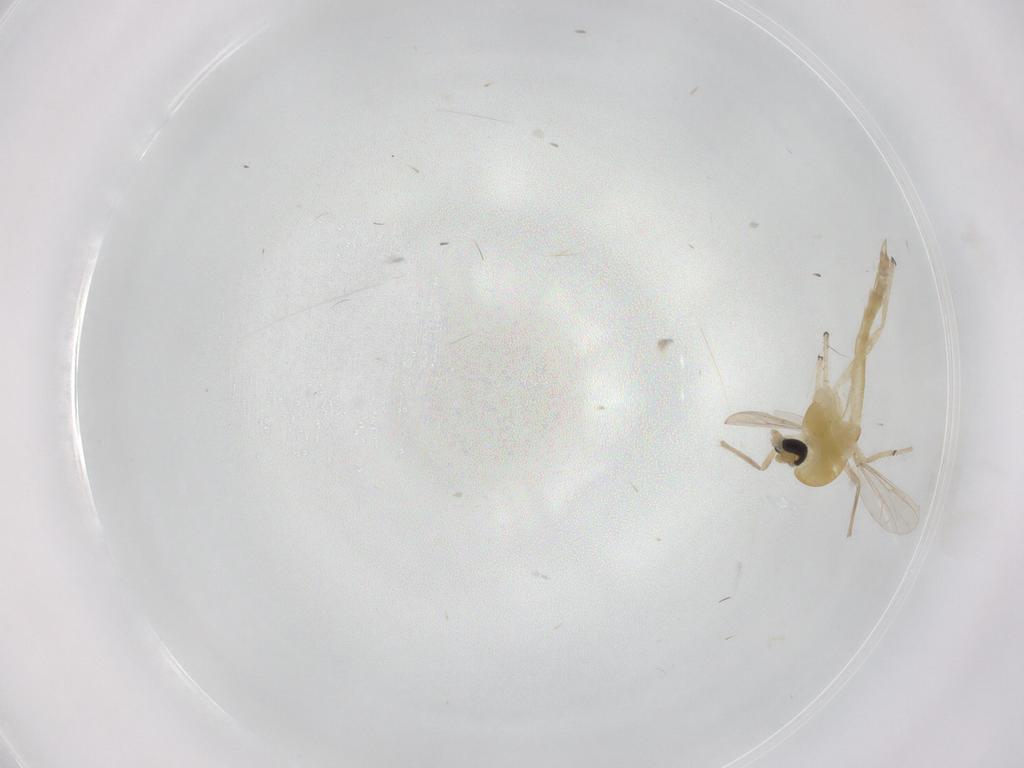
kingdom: Animalia
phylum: Arthropoda
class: Insecta
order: Diptera
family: Chironomidae
